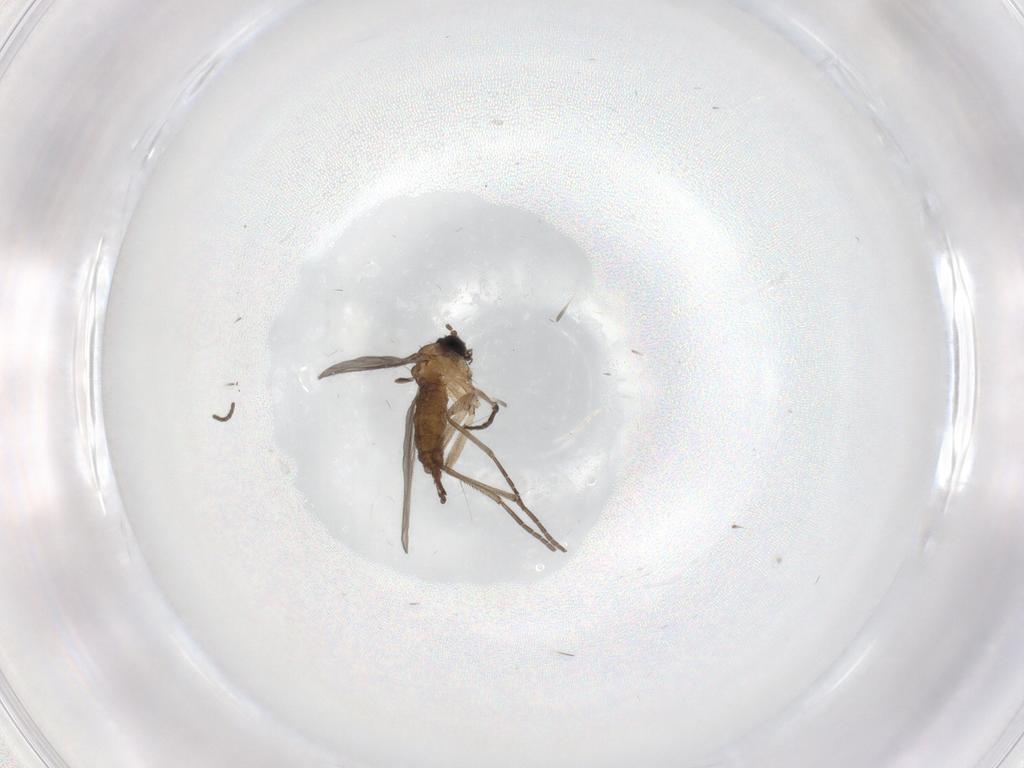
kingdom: Animalia
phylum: Arthropoda
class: Insecta
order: Diptera
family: Sciaridae
